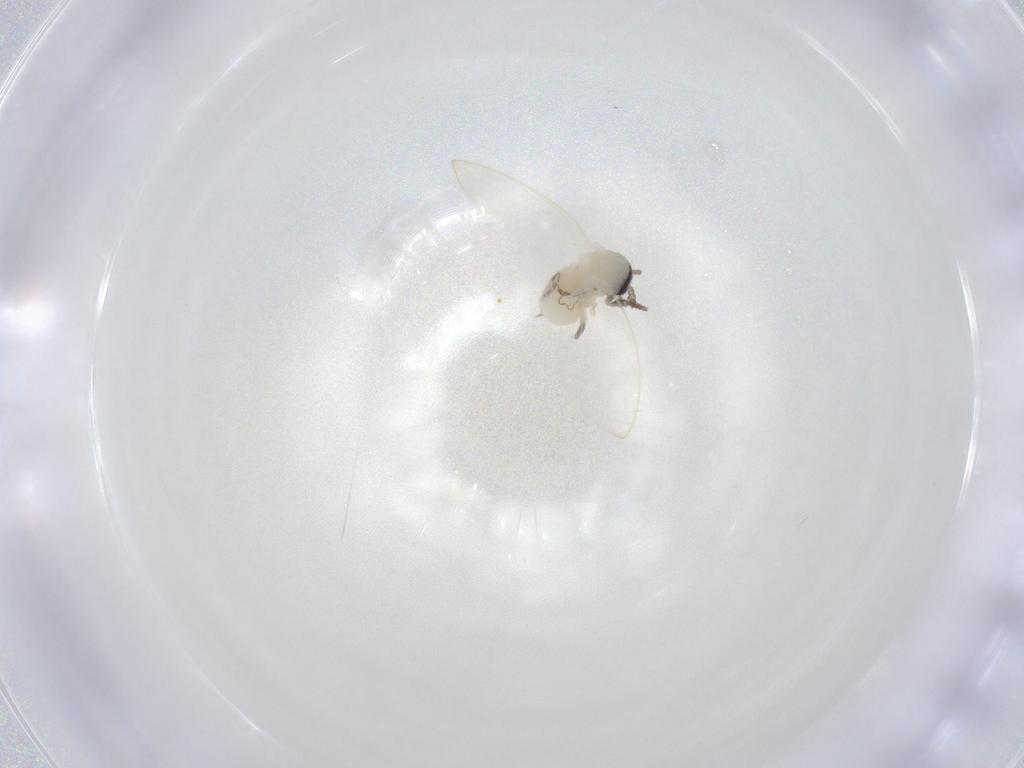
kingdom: Animalia
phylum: Arthropoda
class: Insecta
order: Diptera
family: Psychodidae
